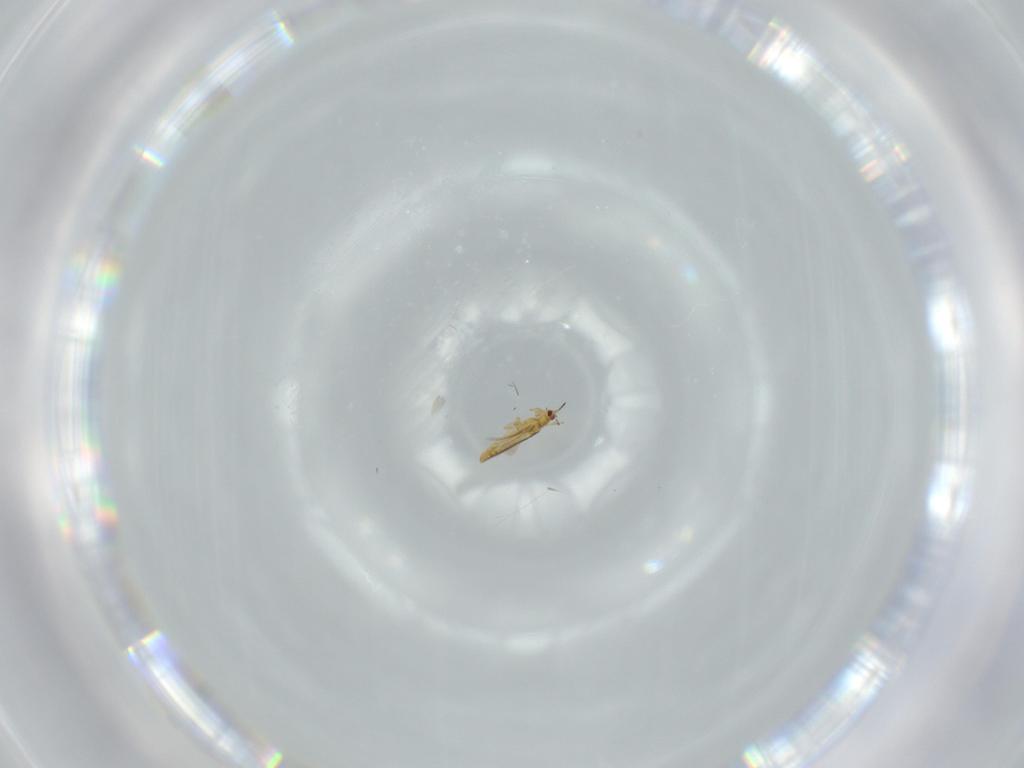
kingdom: Animalia
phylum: Arthropoda
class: Insecta
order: Thysanoptera
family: Thripidae
